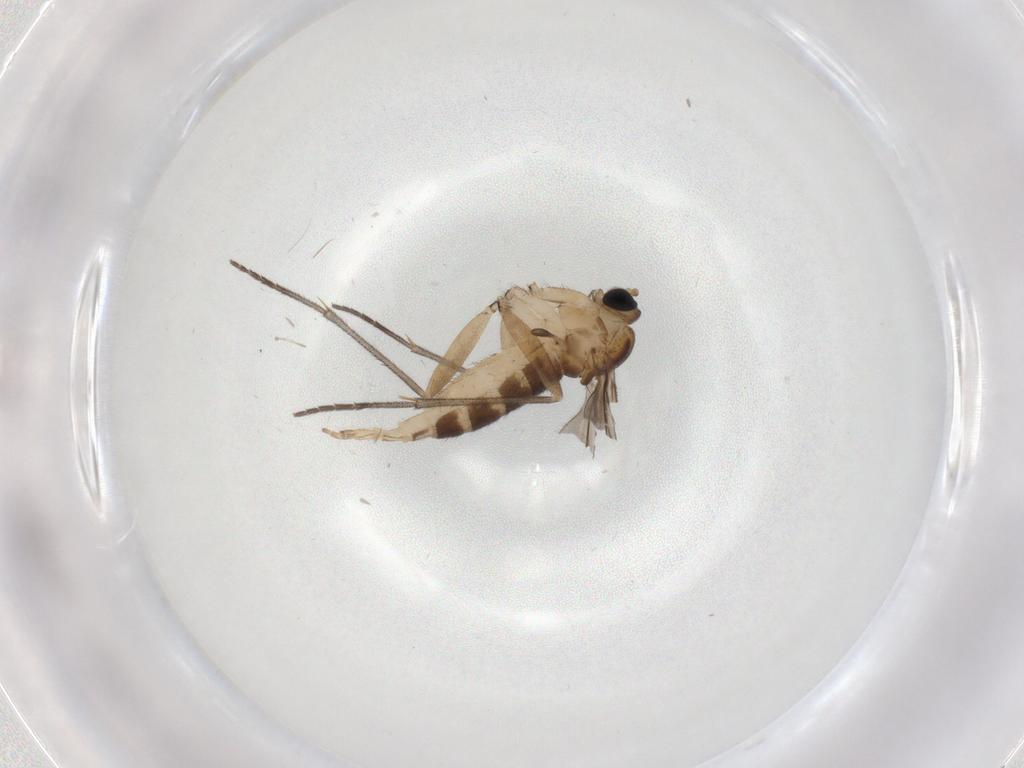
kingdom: Animalia
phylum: Arthropoda
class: Insecta
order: Diptera
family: Sciaridae
